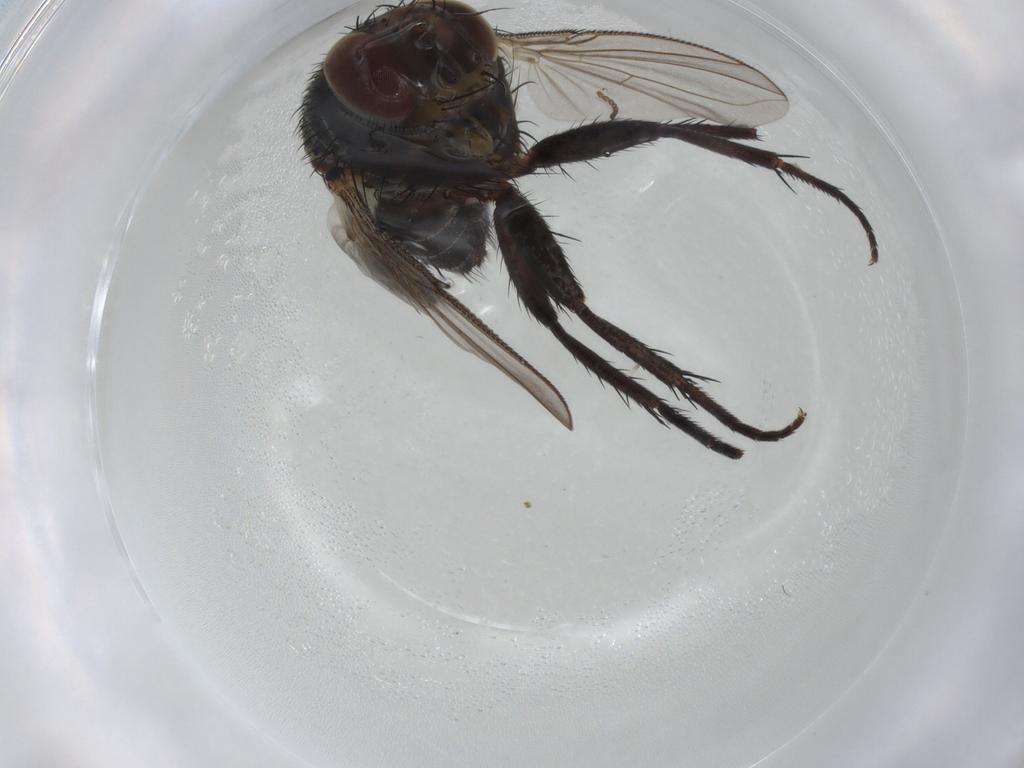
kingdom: Animalia
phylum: Arthropoda
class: Insecta
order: Diptera
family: Tachinidae
